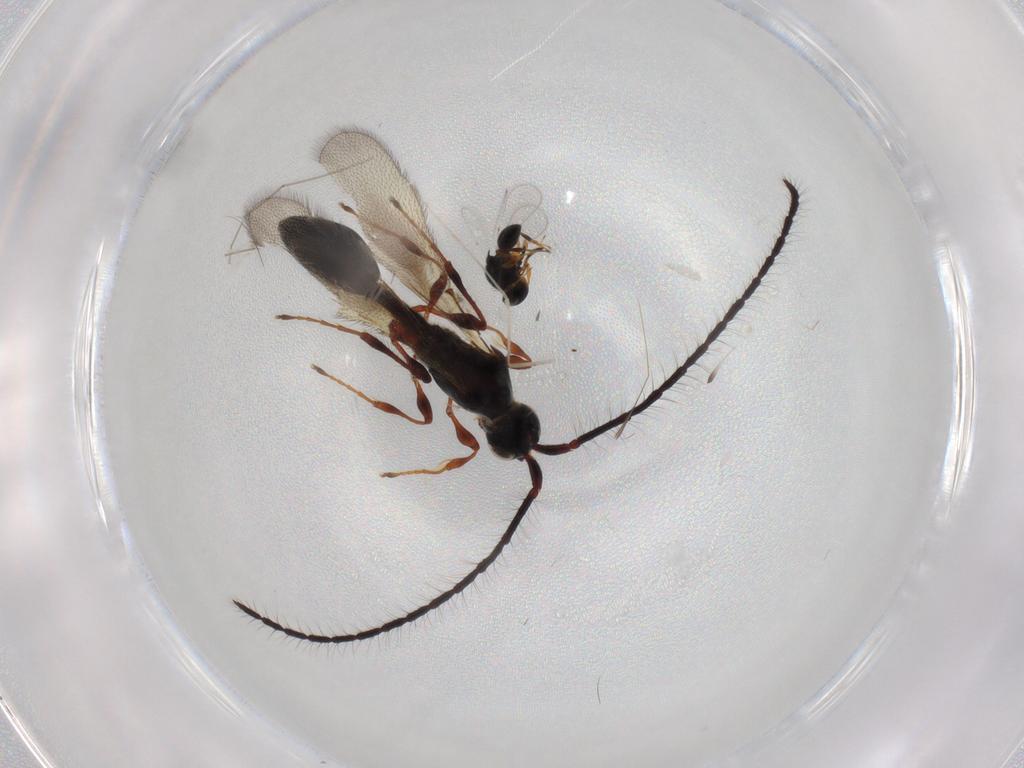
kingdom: Animalia
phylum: Arthropoda
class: Insecta
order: Diptera
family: Cecidomyiidae
